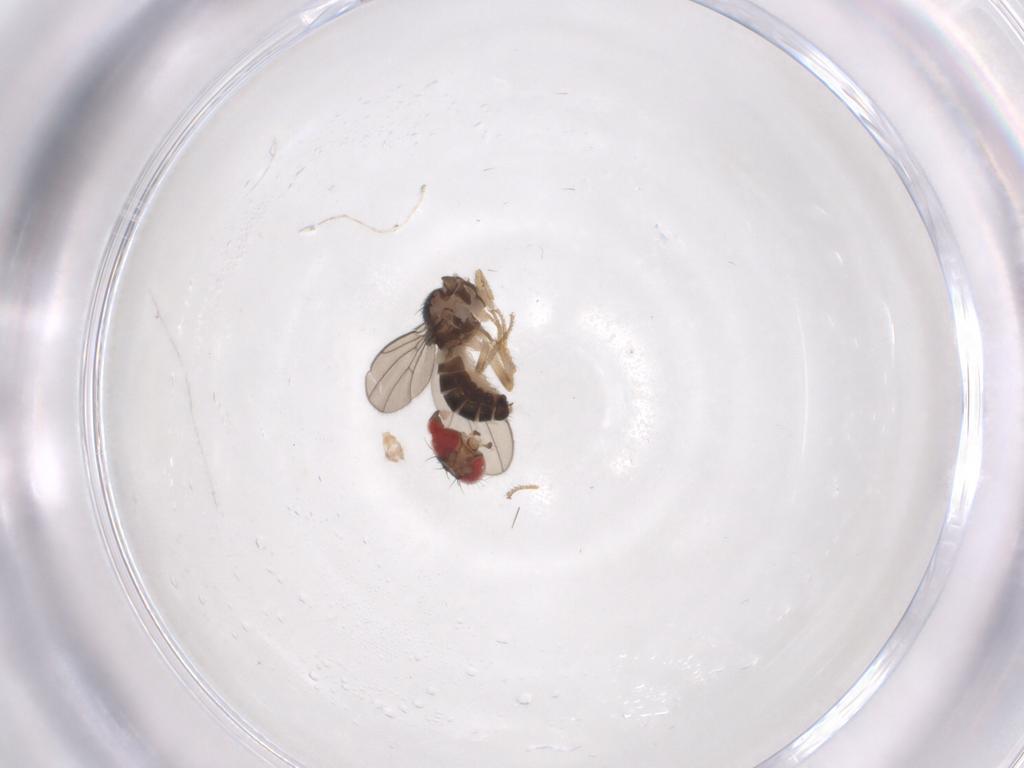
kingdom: Animalia
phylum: Arthropoda
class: Insecta
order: Diptera
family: Drosophilidae
